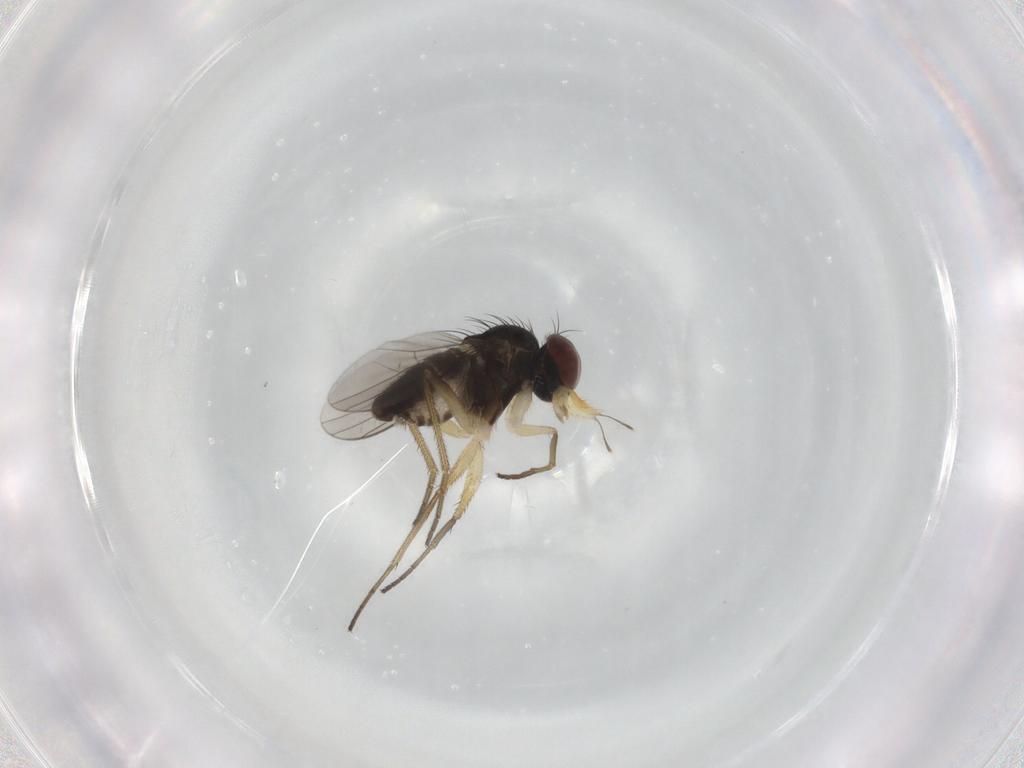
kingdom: Animalia
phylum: Arthropoda
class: Insecta
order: Diptera
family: Dolichopodidae
